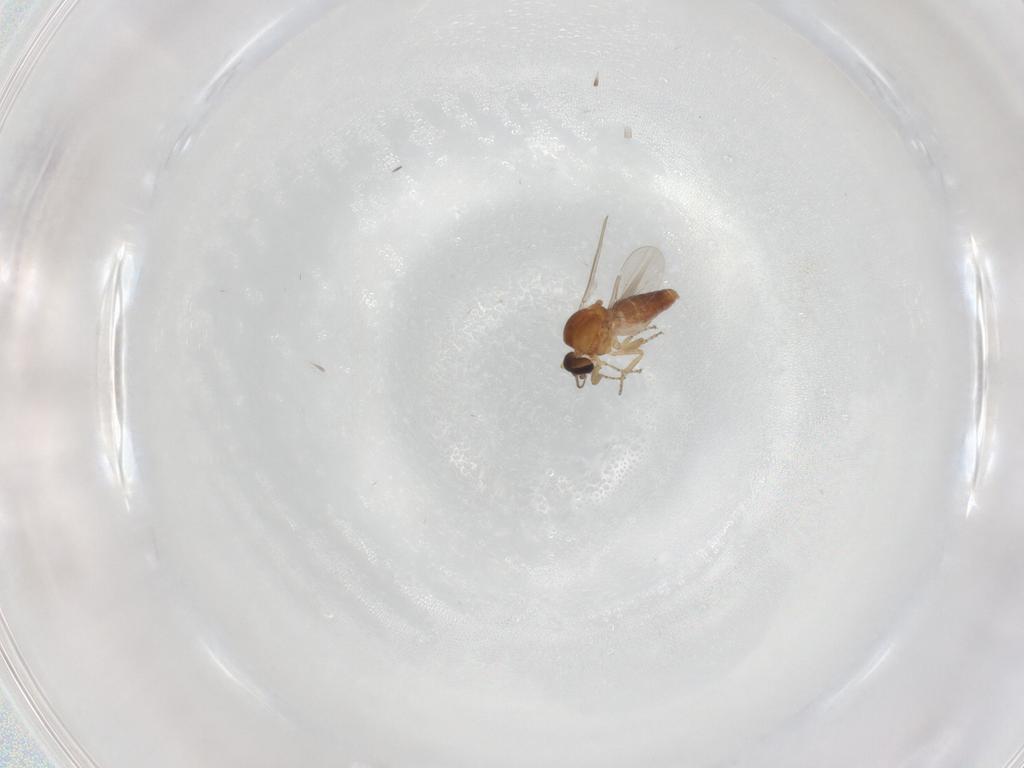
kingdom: Animalia
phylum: Arthropoda
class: Insecta
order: Diptera
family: Ceratopogonidae
